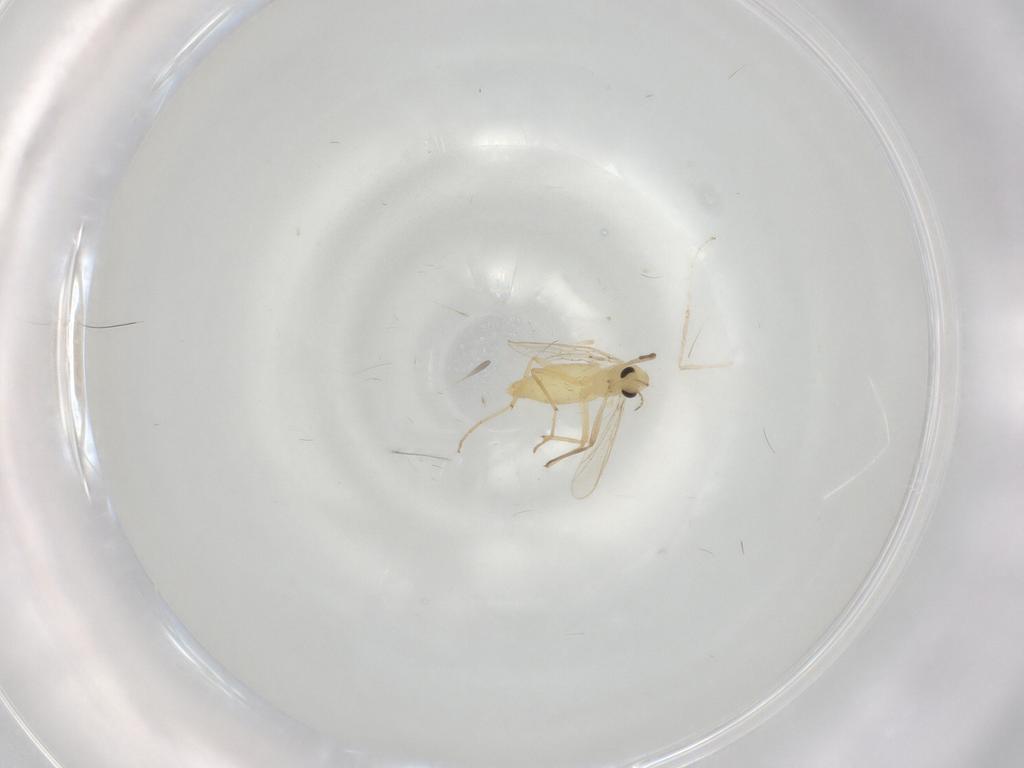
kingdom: Animalia
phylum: Arthropoda
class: Insecta
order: Diptera
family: Chironomidae
